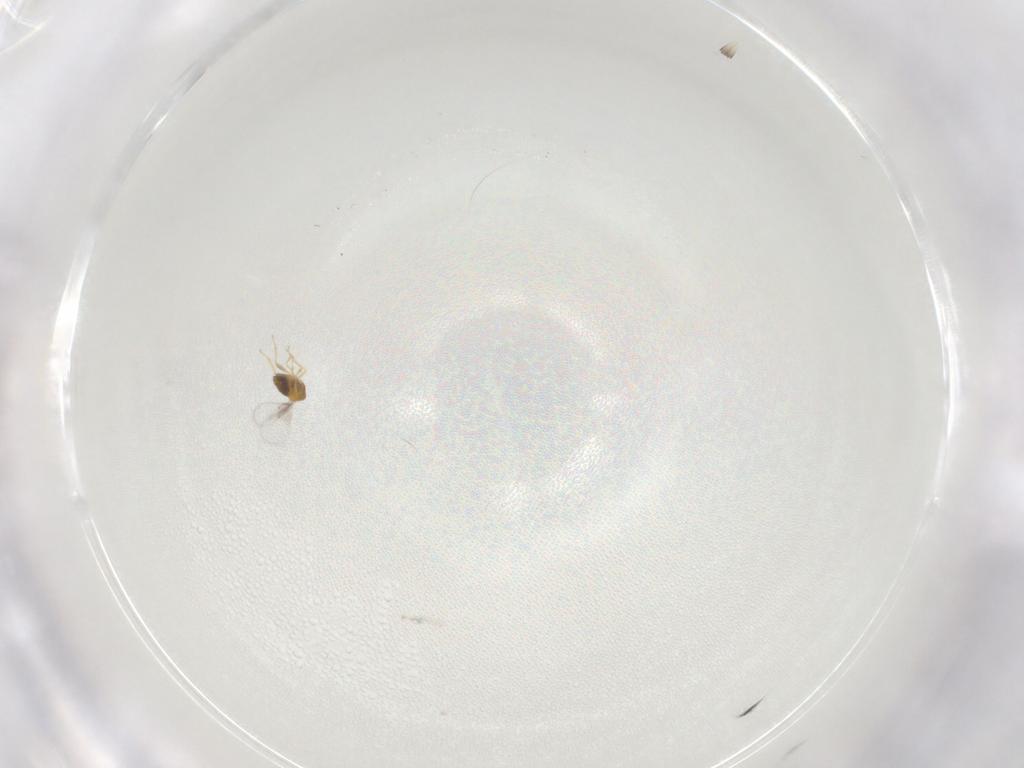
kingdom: Animalia
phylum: Arthropoda
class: Insecta
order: Hymenoptera
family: Trichogrammatidae
